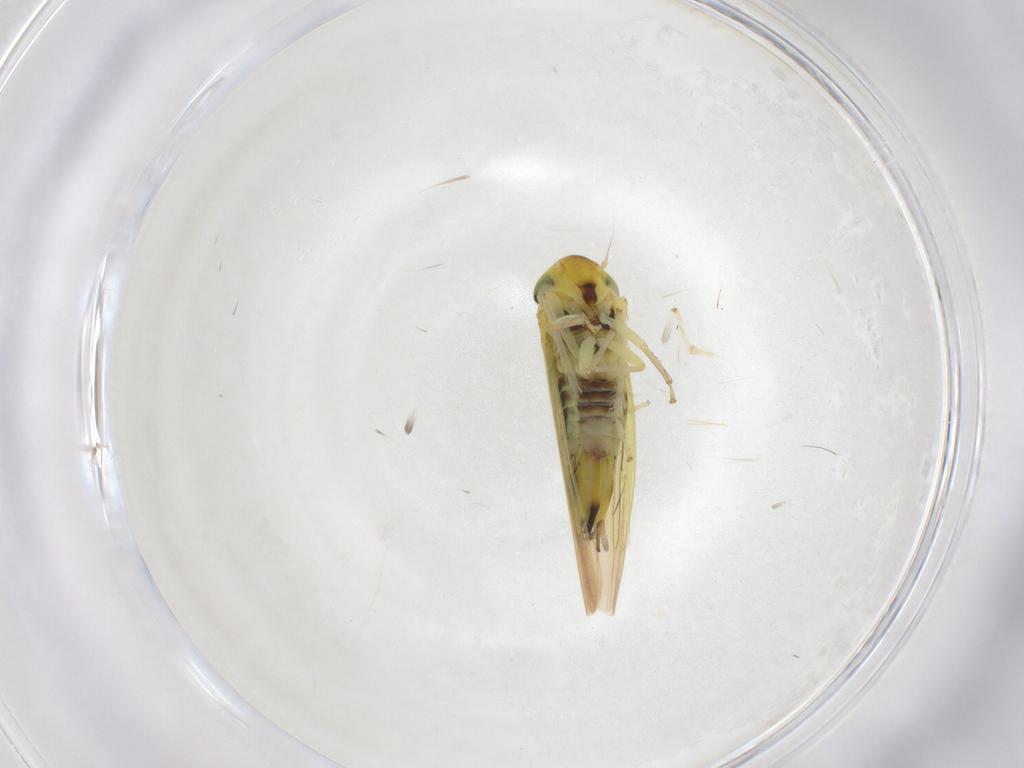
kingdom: Animalia
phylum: Arthropoda
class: Insecta
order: Hemiptera
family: Cicadellidae
